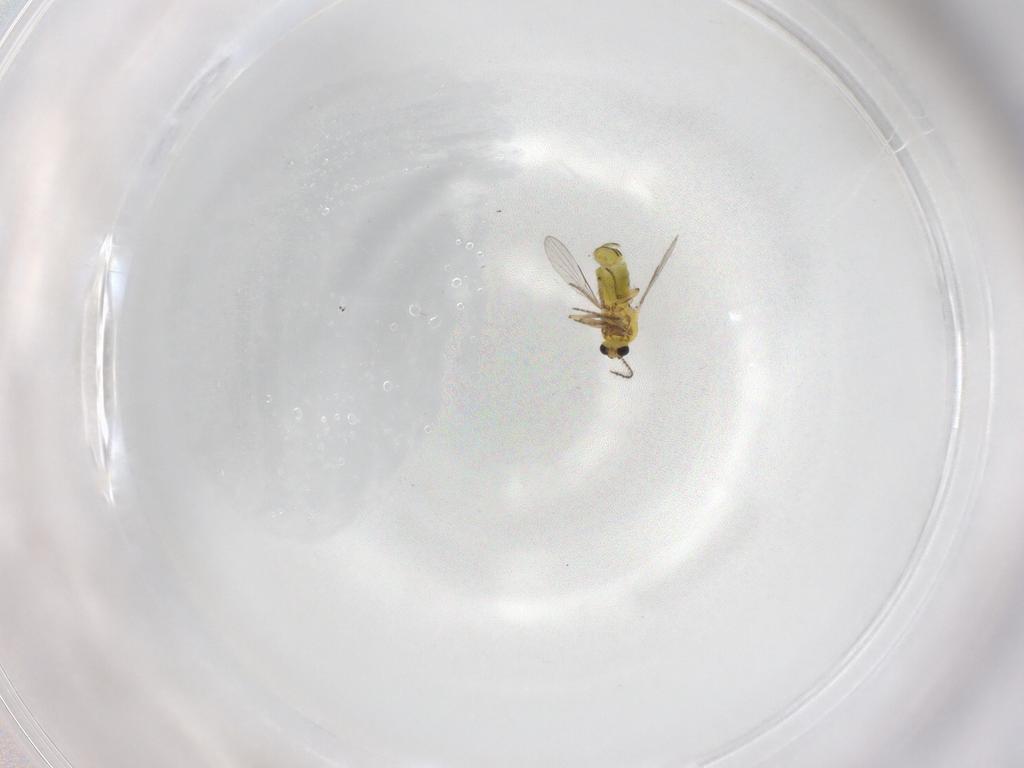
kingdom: Animalia
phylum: Arthropoda
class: Insecta
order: Diptera
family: Ceratopogonidae
